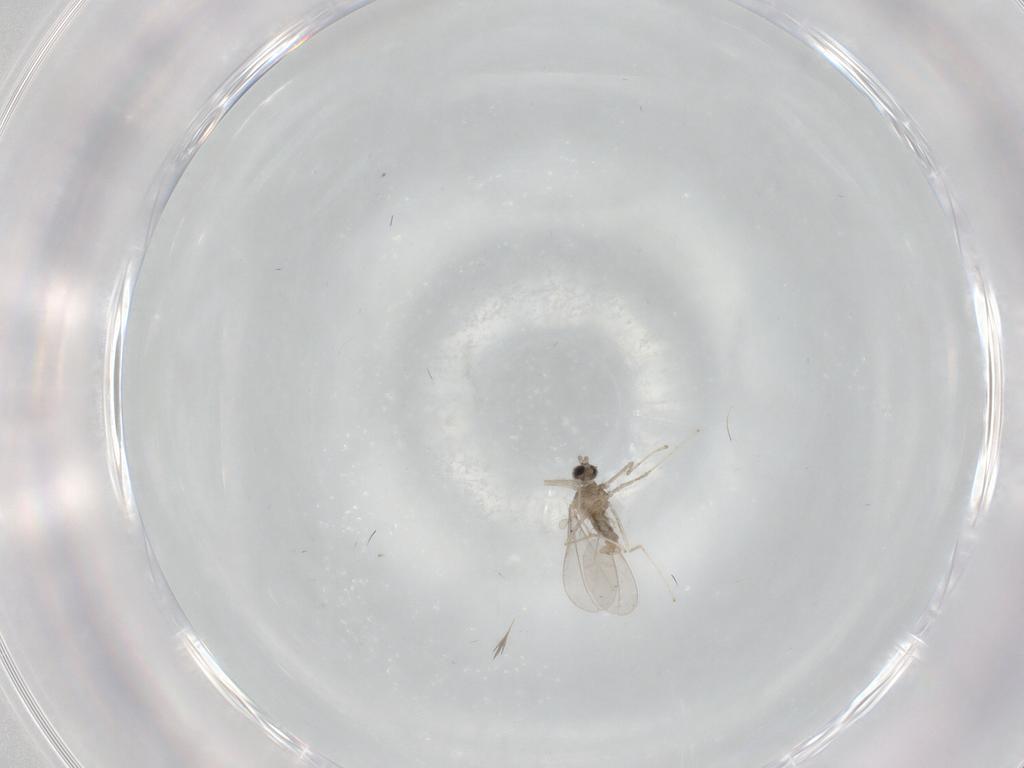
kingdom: Animalia
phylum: Arthropoda
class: Insecta
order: Diptera
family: Cecidomyiidae
